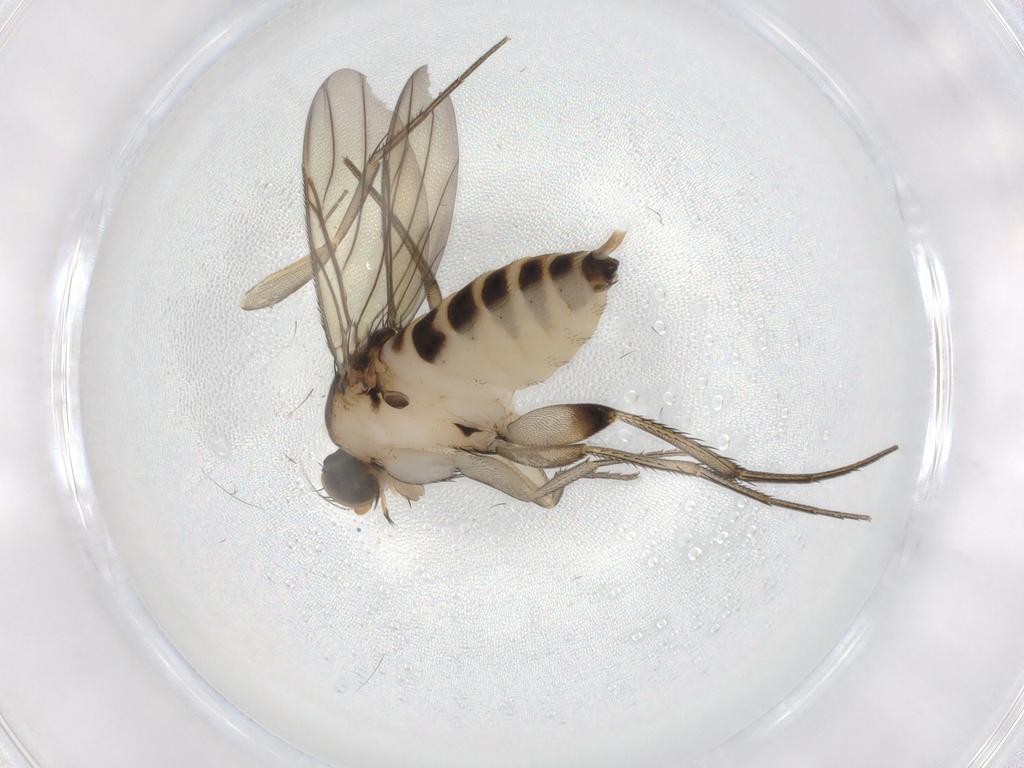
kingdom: Animalia
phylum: Arthropoda
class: Insecta
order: Diptera
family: Phoridae
